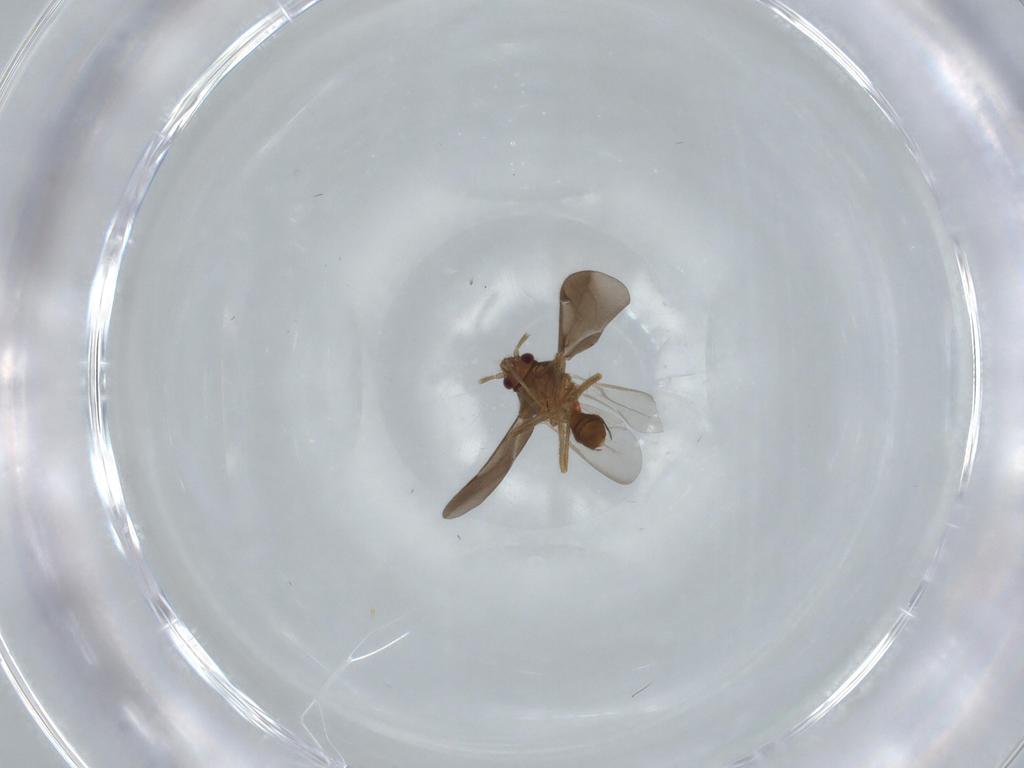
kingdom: Animalia
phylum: Arthropoda
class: Insecta
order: Hemiptera
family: Ceratocombidae
